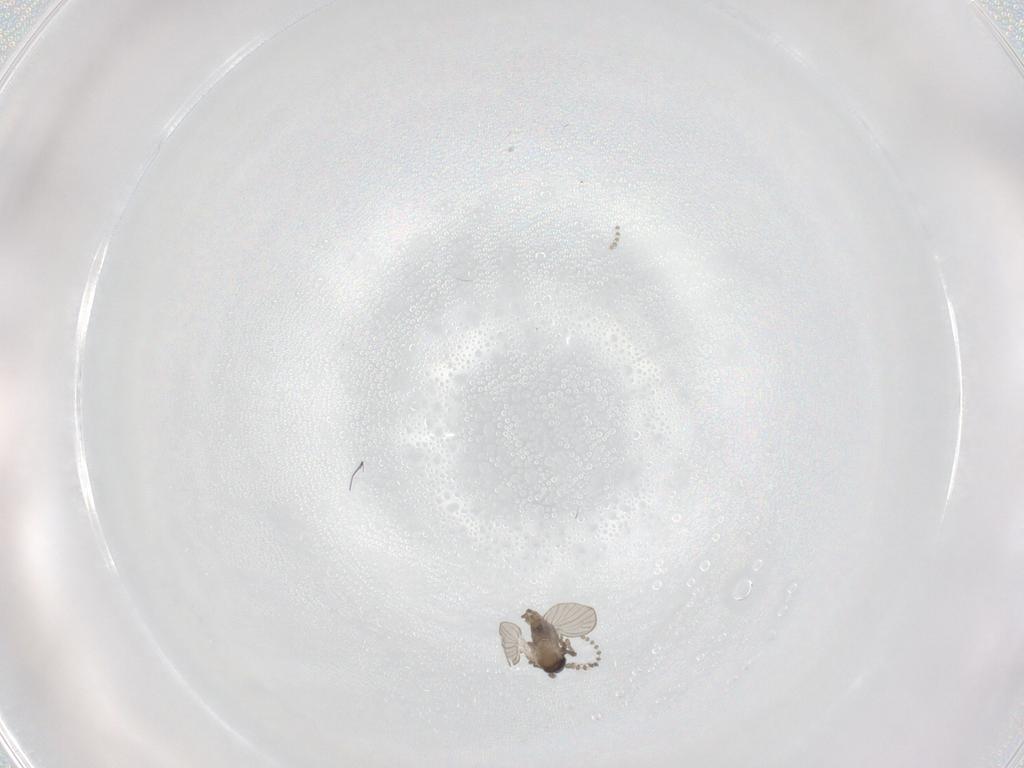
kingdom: Animalia
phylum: Arthropoda
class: Insecta
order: Diptera
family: Psychodidae
